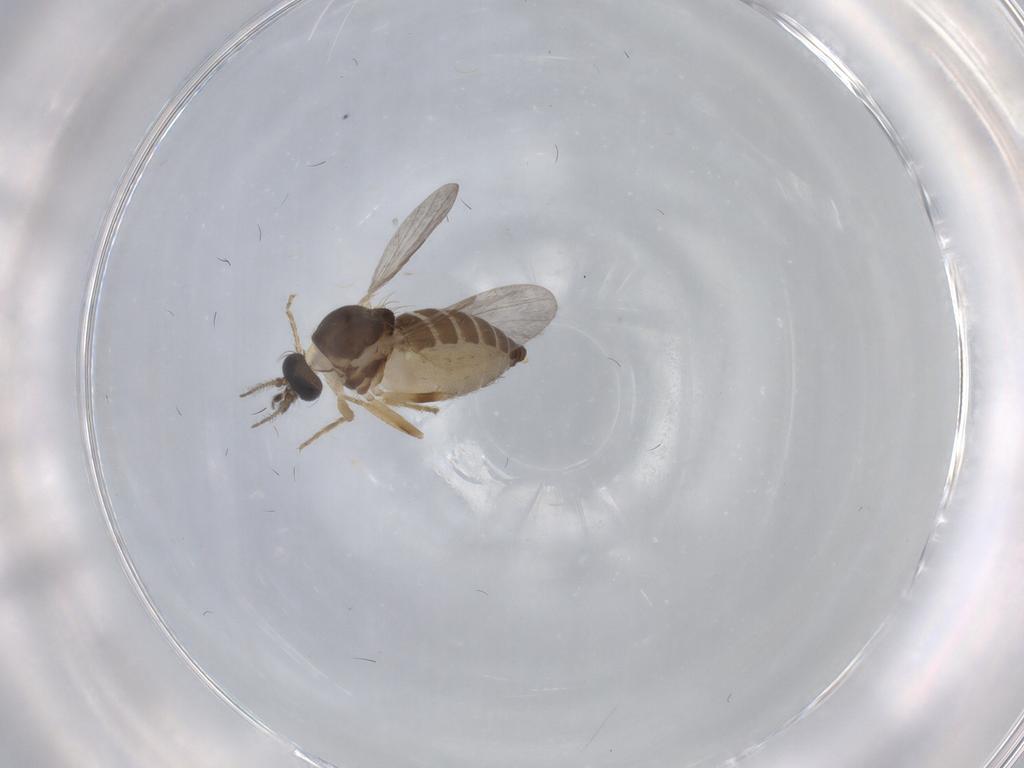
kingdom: Animalia
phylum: Arthropoda
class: Insecta
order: Diptera
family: Ceratopogonidae
